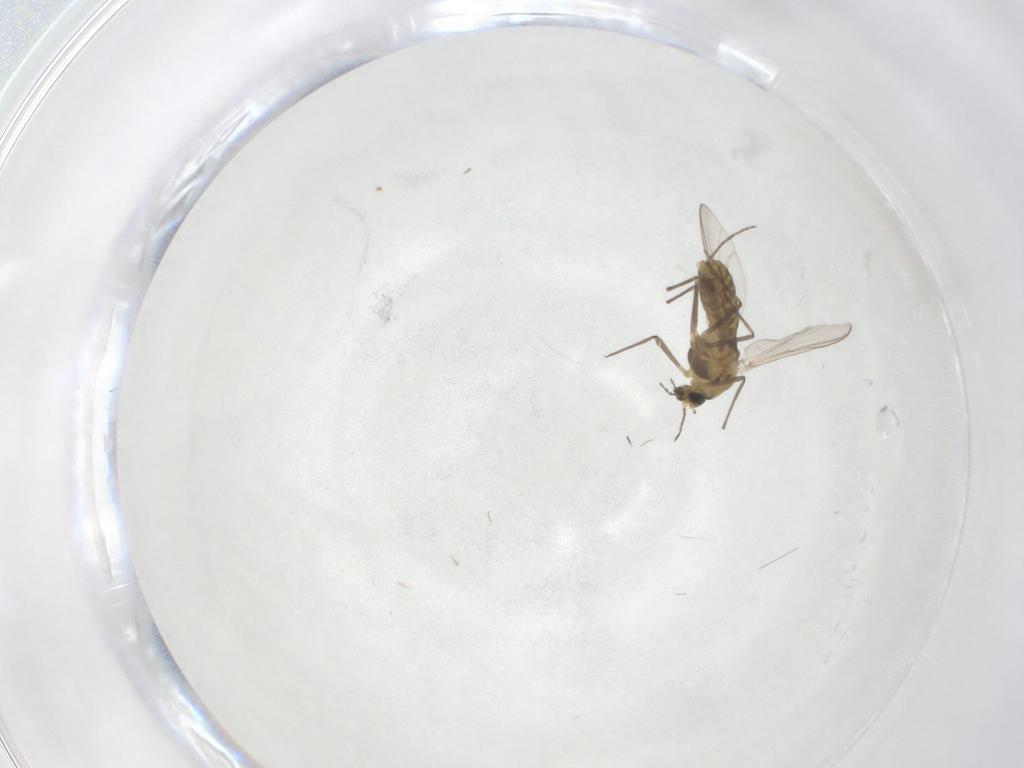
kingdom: Animalia
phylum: Arthropoda
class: Insecta
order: Diptera
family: Chironomidae
